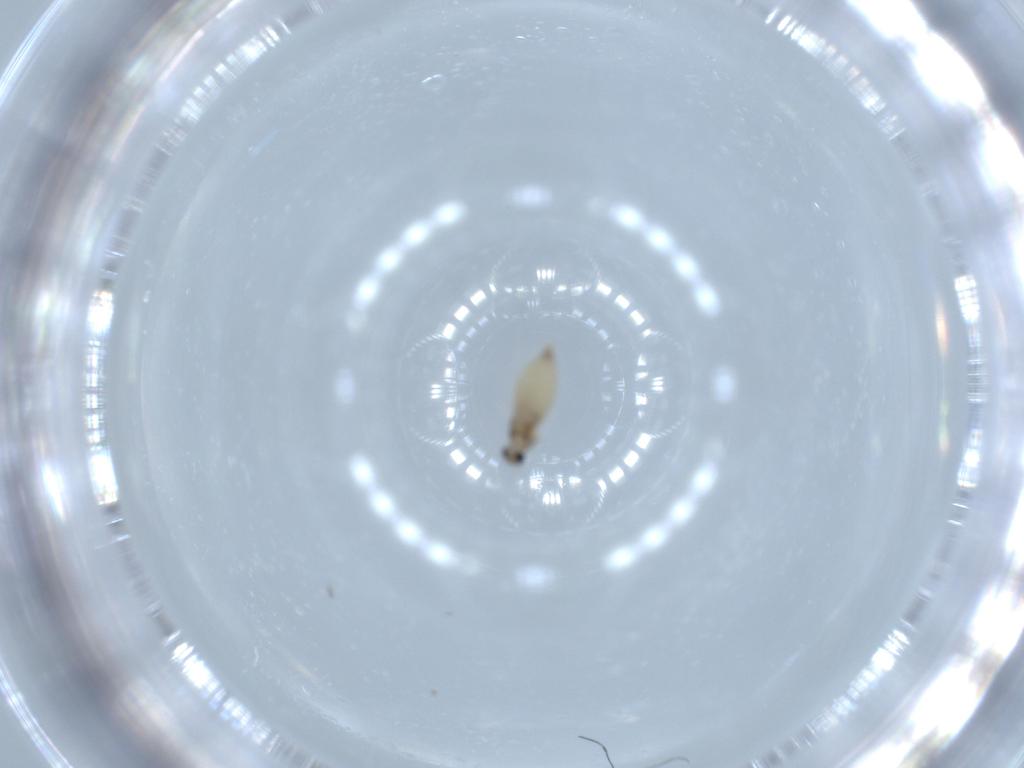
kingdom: Animalia
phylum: Arthropoda
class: Insecta
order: Diptera
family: Cecidomyiidae
